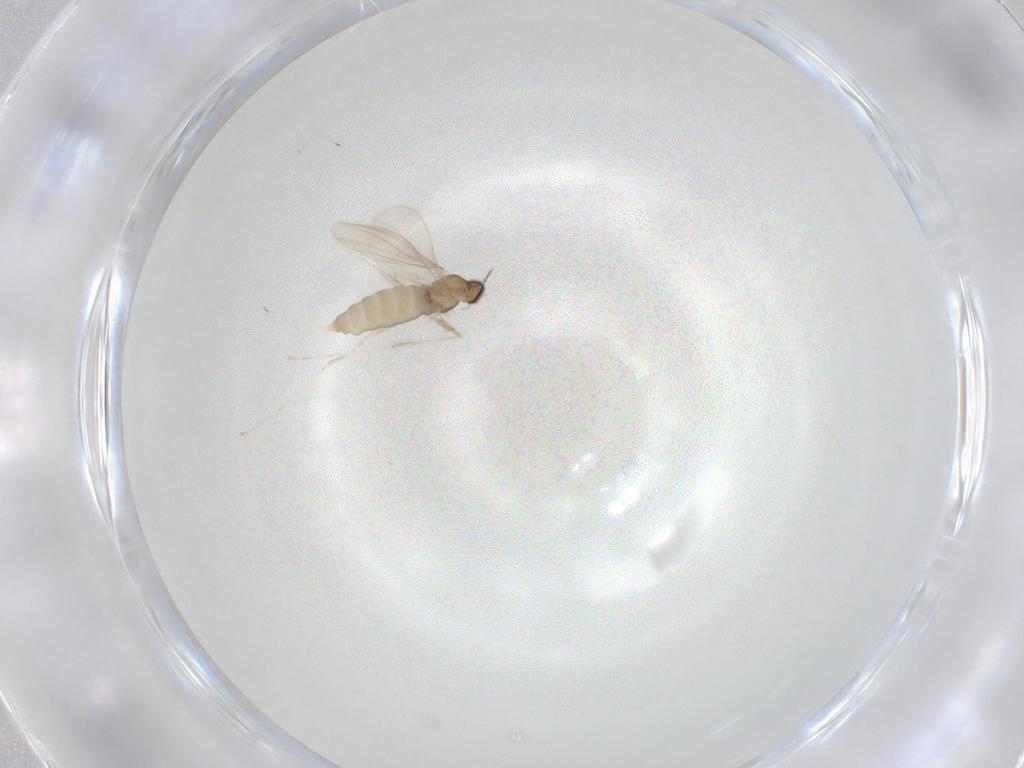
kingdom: Animalia
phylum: Arthropoda
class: Insecta
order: Diptera
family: Cecidomyiidae
